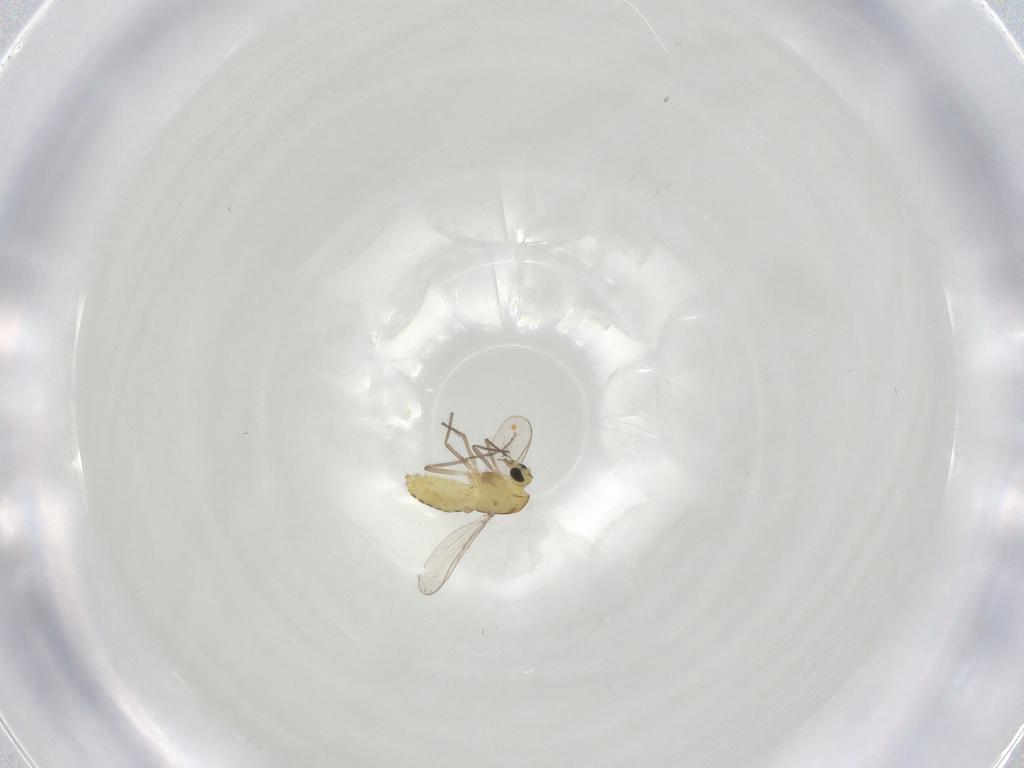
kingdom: Animalia
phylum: Arthropoda
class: Insecta
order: Diptera
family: Chironomidae
